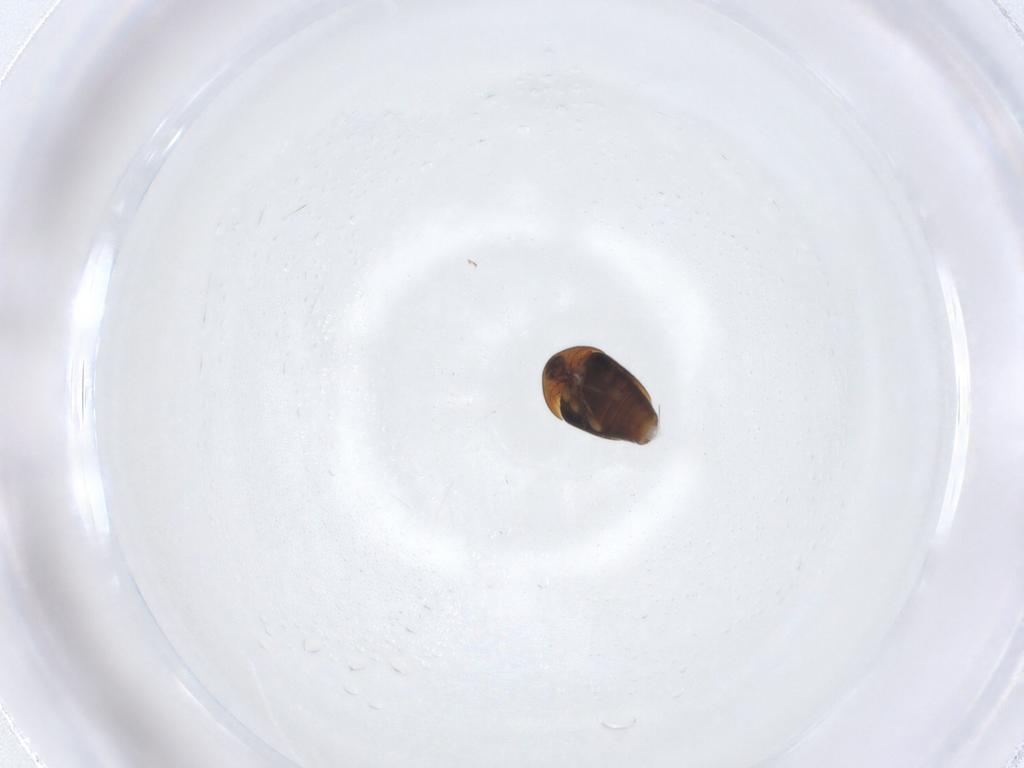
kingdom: Animalia
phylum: Arthropoda
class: Insecta
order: Coleoptera
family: Corylophidae
